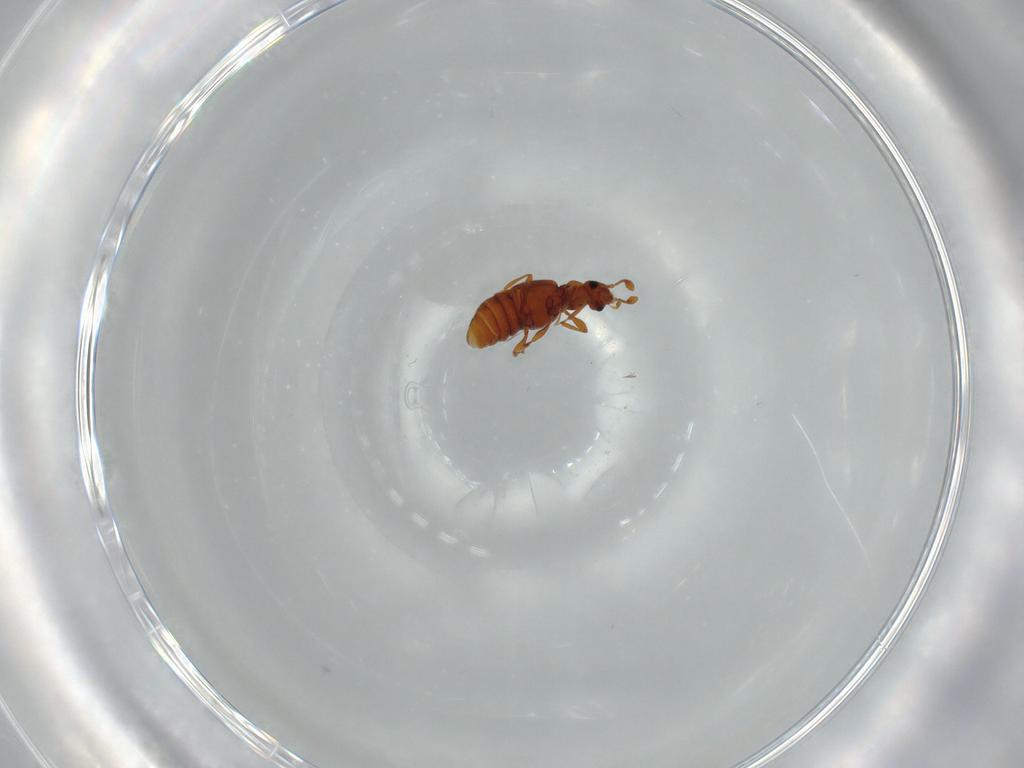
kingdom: Animalia
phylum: Arthropoda
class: Insecta
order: Coleoptera
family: Staphylinidae
